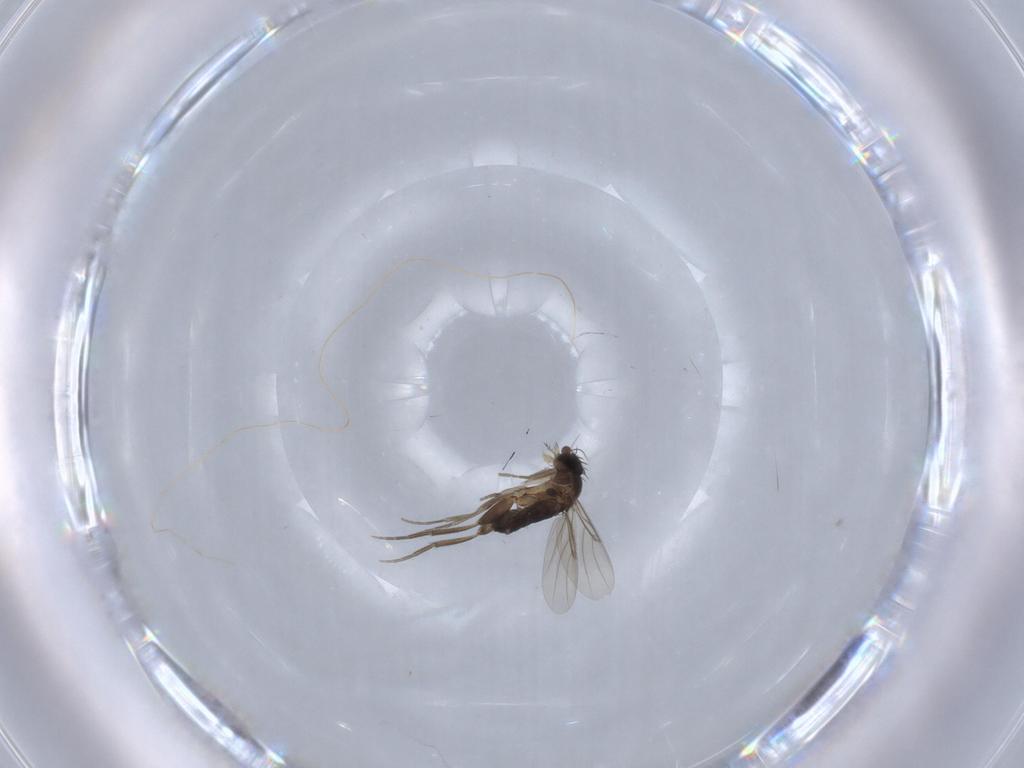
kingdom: Animalia
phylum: Arthropoda
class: Insecta
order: Diptera
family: Phoridae
